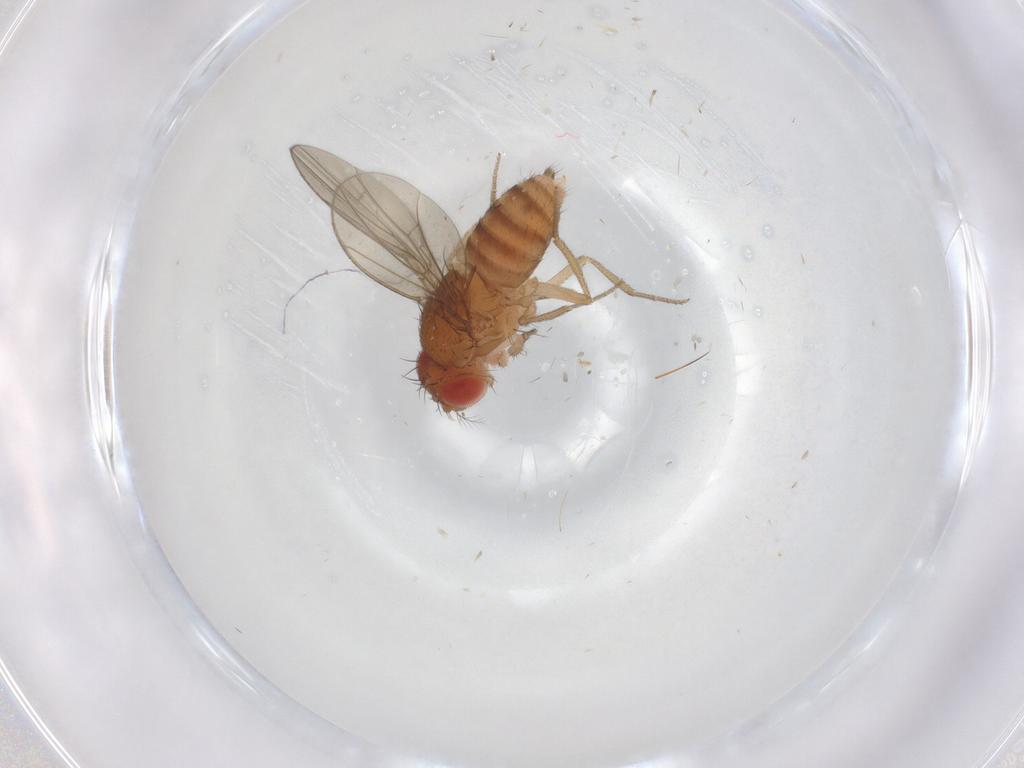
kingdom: Animalia
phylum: Arthropoda
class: Insecta
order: Diptera
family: Drosophilidae
